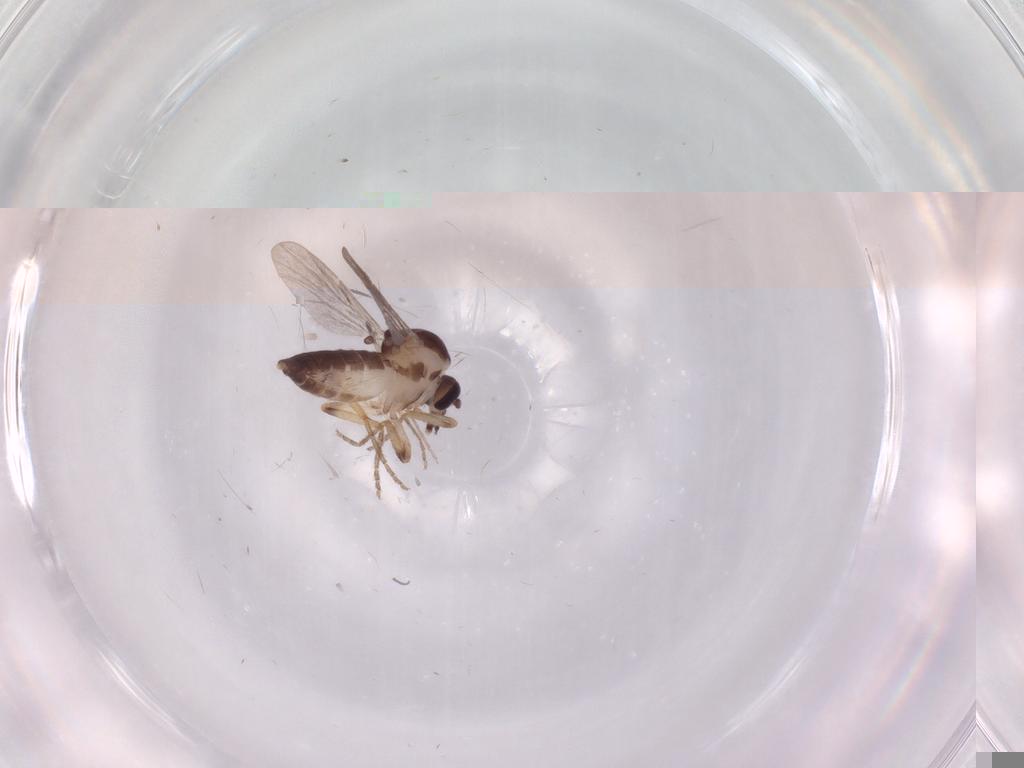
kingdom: Animalia
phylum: Arthropoda
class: Insecta
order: Diptera
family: Ceratopogonidae
